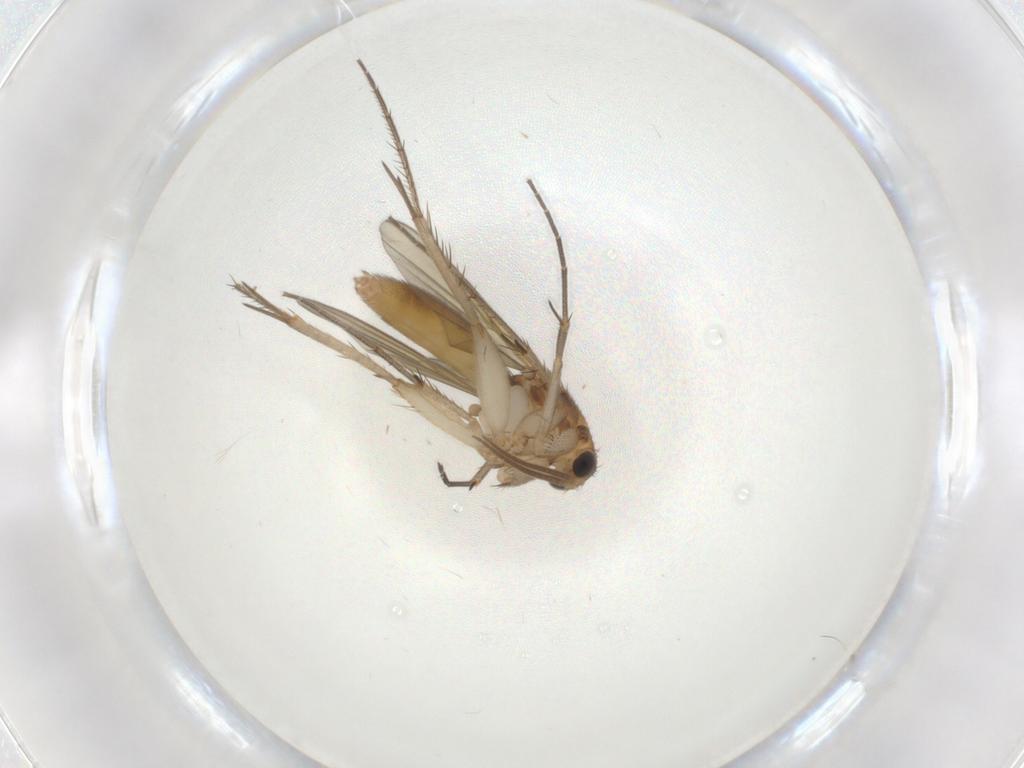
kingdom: Animalia
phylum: Arthropoda
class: Insecta
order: Diptera
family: Mycetophilidae
